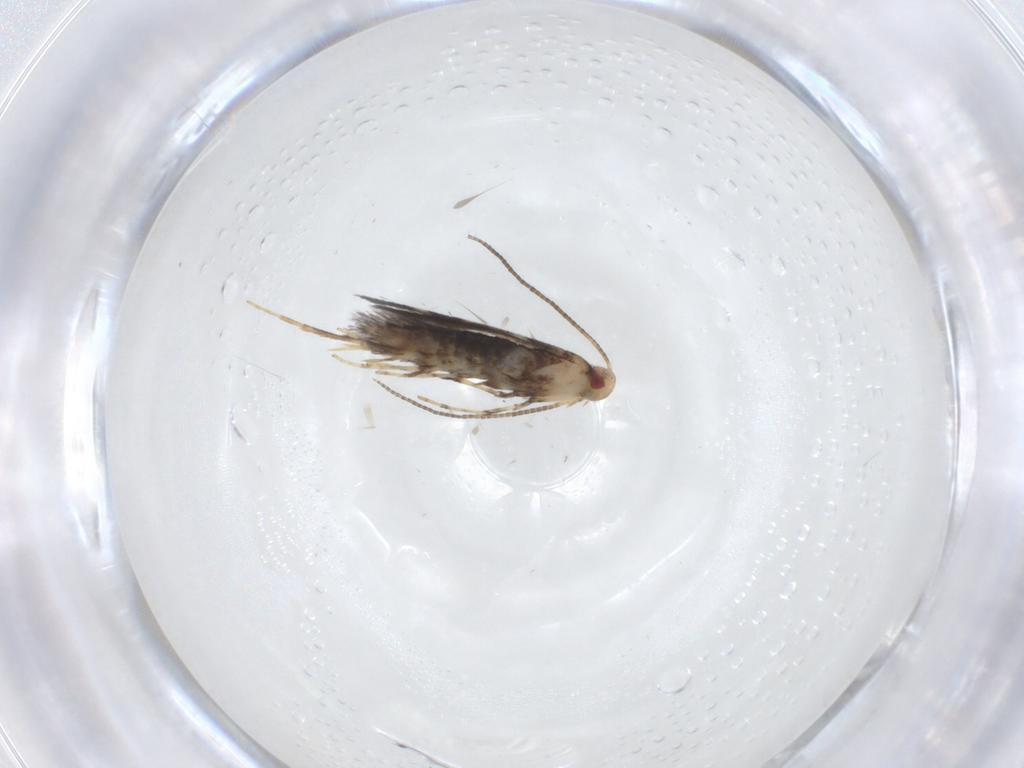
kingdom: Animalia
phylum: Arthropoda
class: Insecta
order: Lepidoptera
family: Gracillariidae
